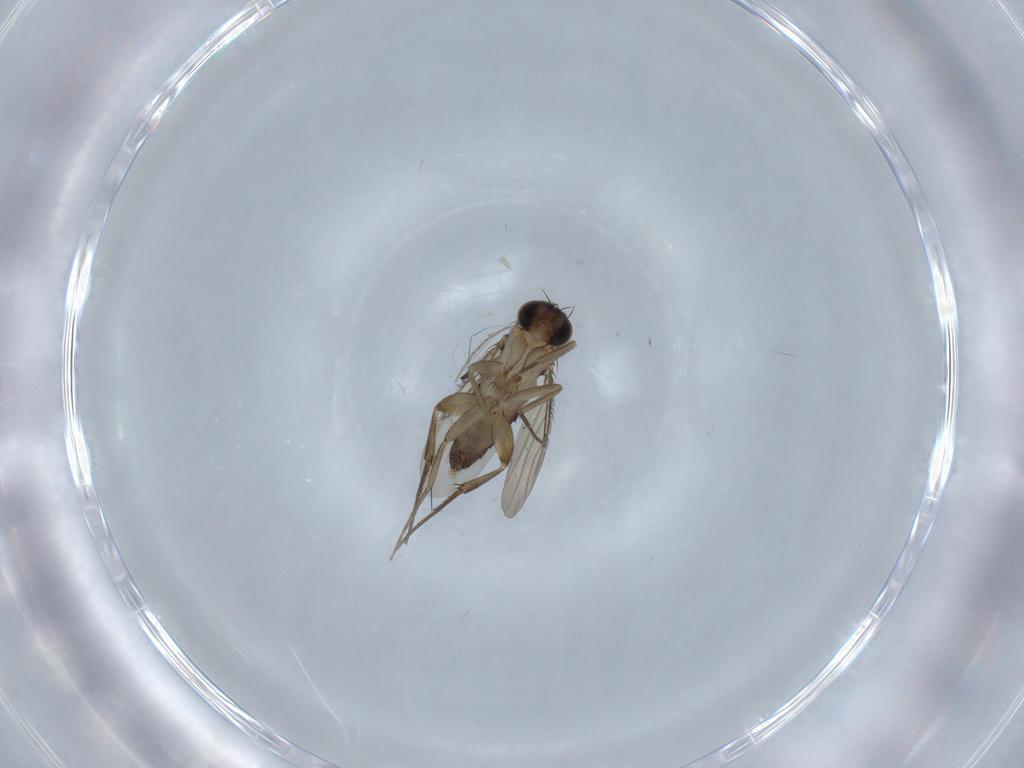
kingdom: Animalia
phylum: Arthropoda
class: Insecta
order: Diptera
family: Phoridae
